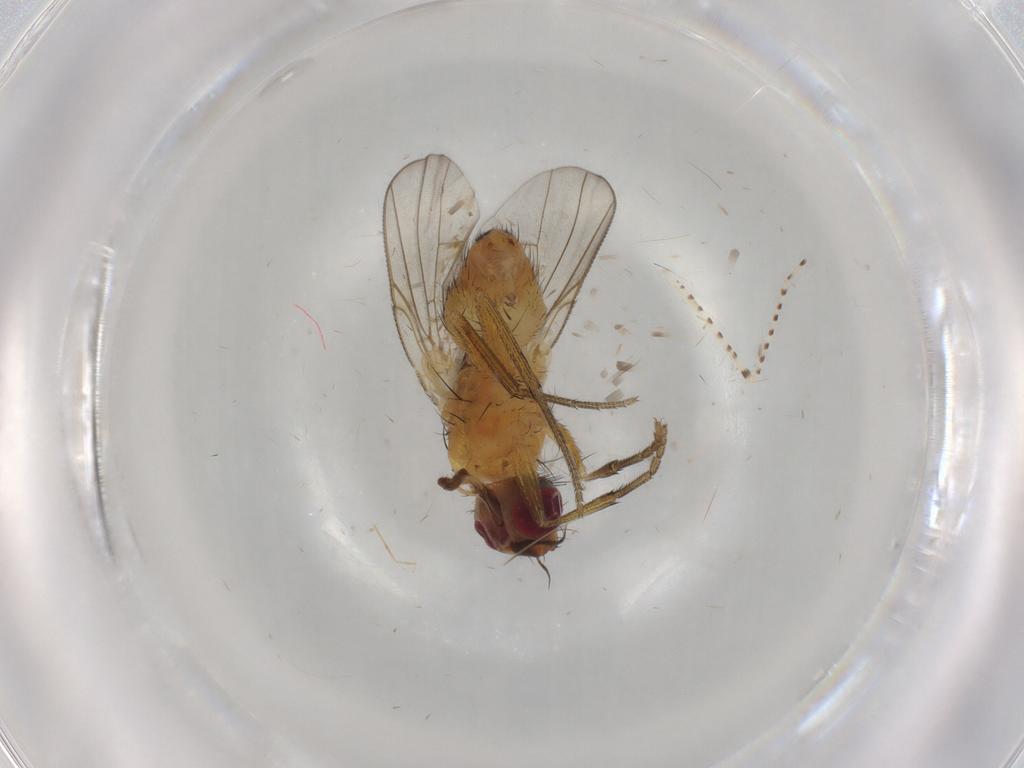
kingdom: Animalia
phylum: Arthropoda
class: Insecta
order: Diptera
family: Muscidae
